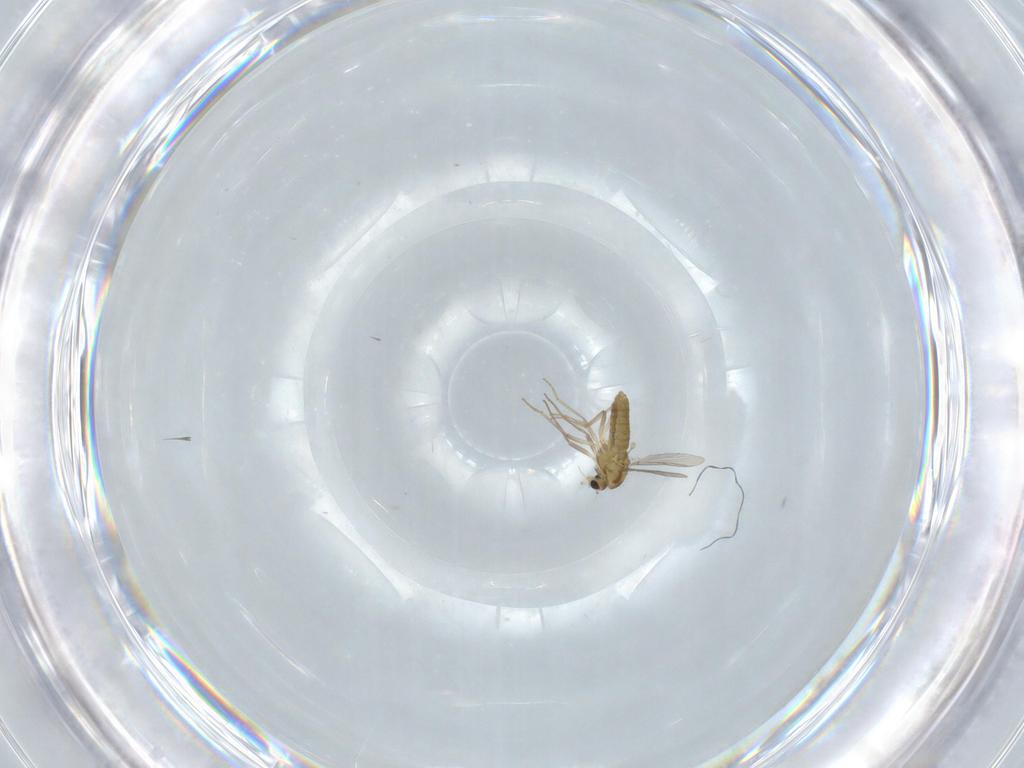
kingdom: Animalia
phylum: Arthropoda
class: Insecta
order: Diptera
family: Chironomidae
